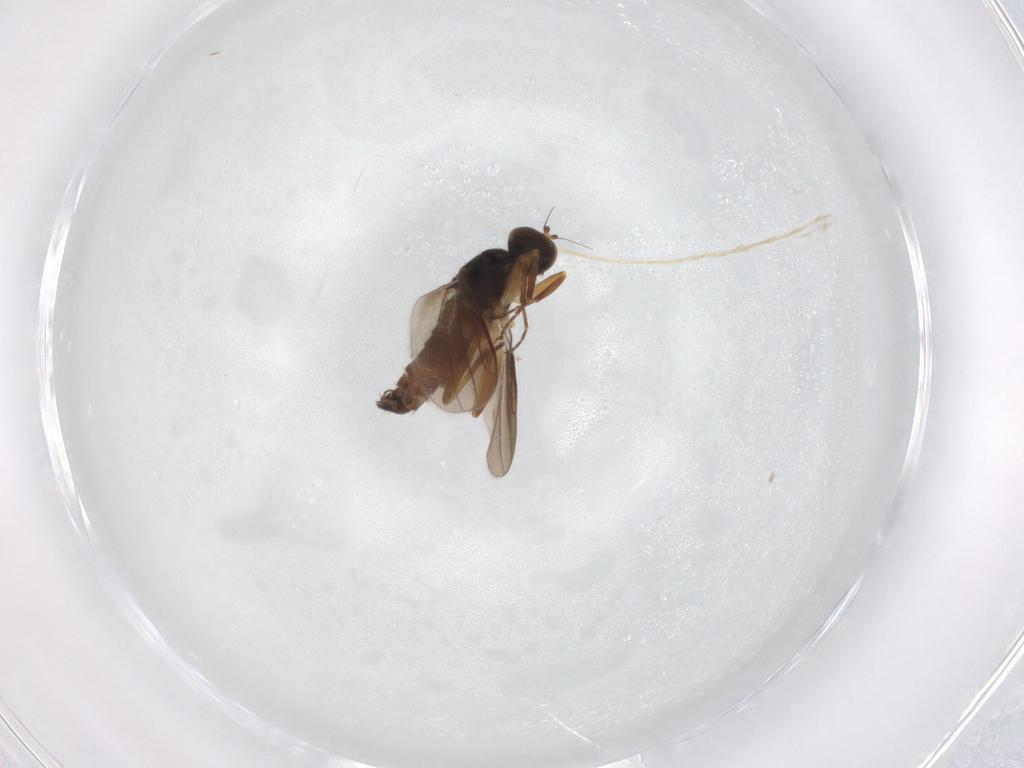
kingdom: Animalia
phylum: Arthropoda
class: Insecta
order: Diptera
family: Hybotidae
